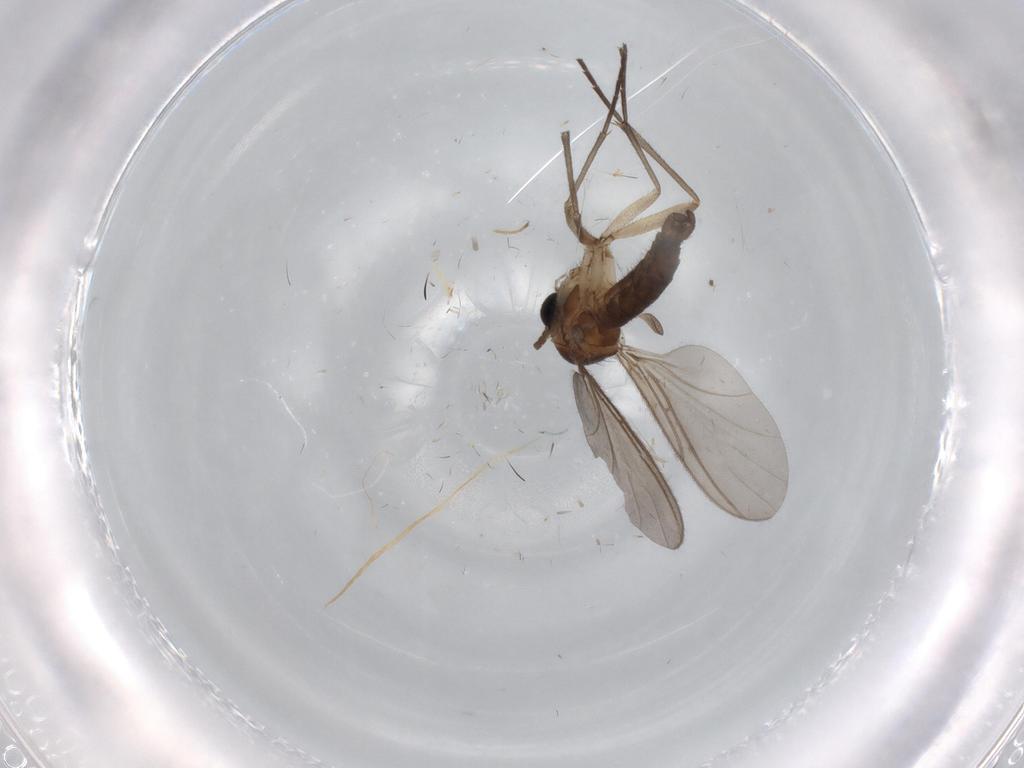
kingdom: Animalia
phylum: Arthropoda
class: Insecta
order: Diptera
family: Sciaridae
